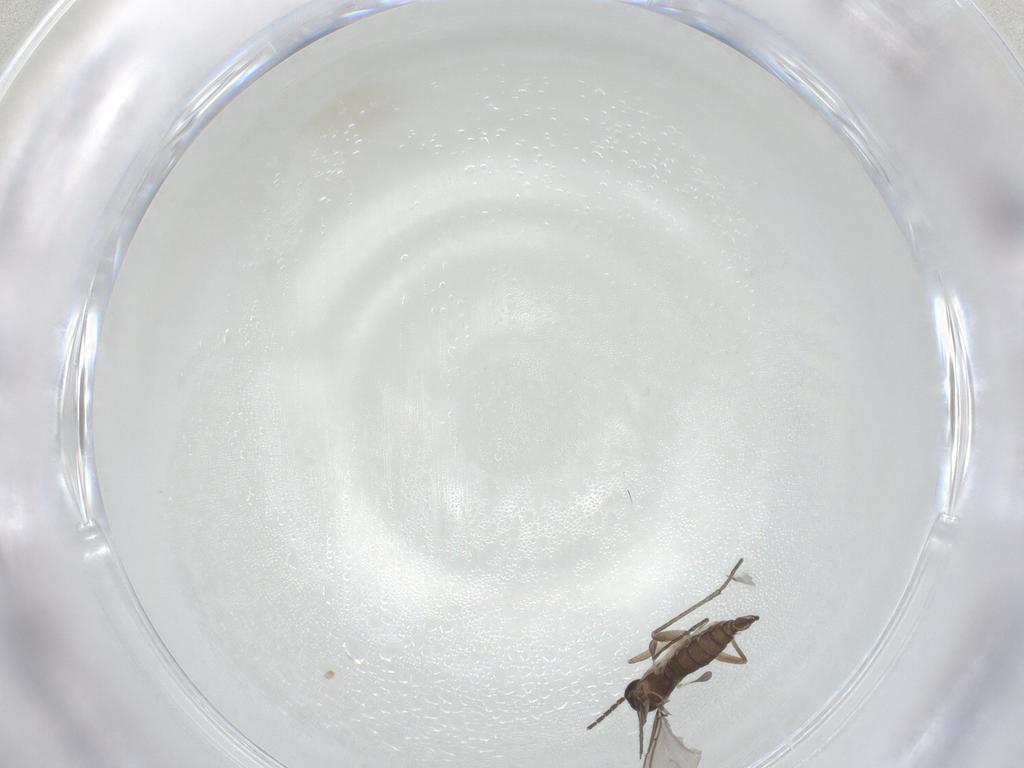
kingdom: Animalia
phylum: Arthropoda
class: Insecta
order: Diptera
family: Sciaridae
